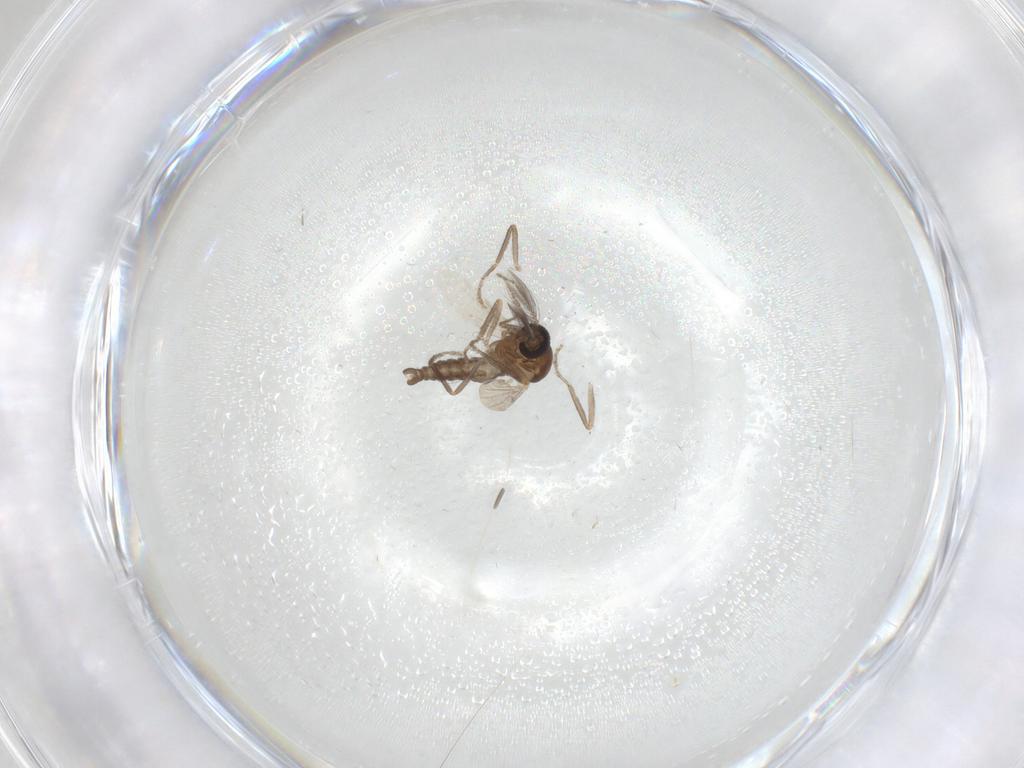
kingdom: Animalia
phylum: Arthropoda
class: Insecta
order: Diptera
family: Ceratopogonidae
